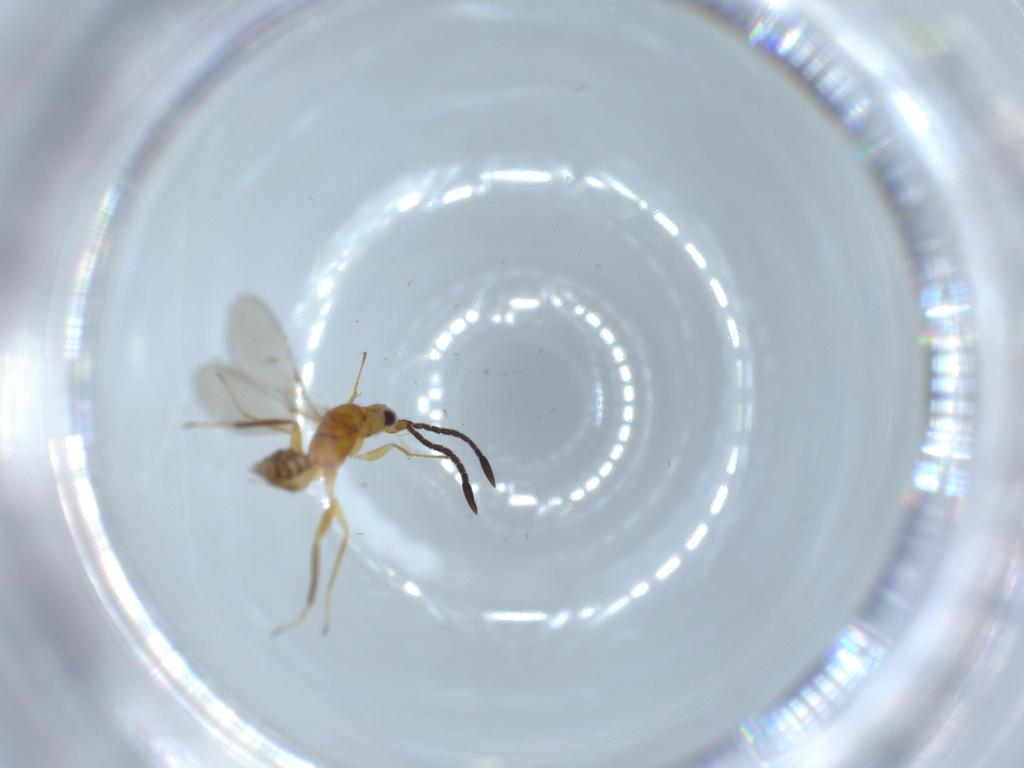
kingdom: Animalia
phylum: Arthropoda
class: Insecta
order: Hymenoptera
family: Mymaridae
